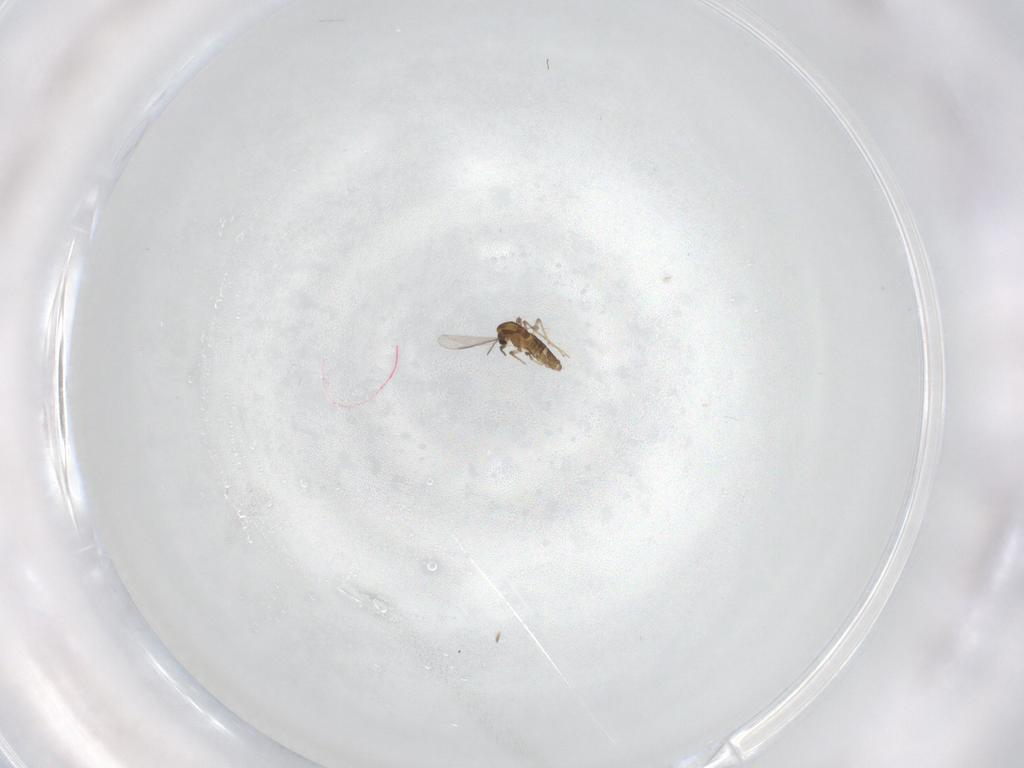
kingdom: Animalia
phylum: Arthropoda
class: Insecta
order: Diptera
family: Chironomidae
